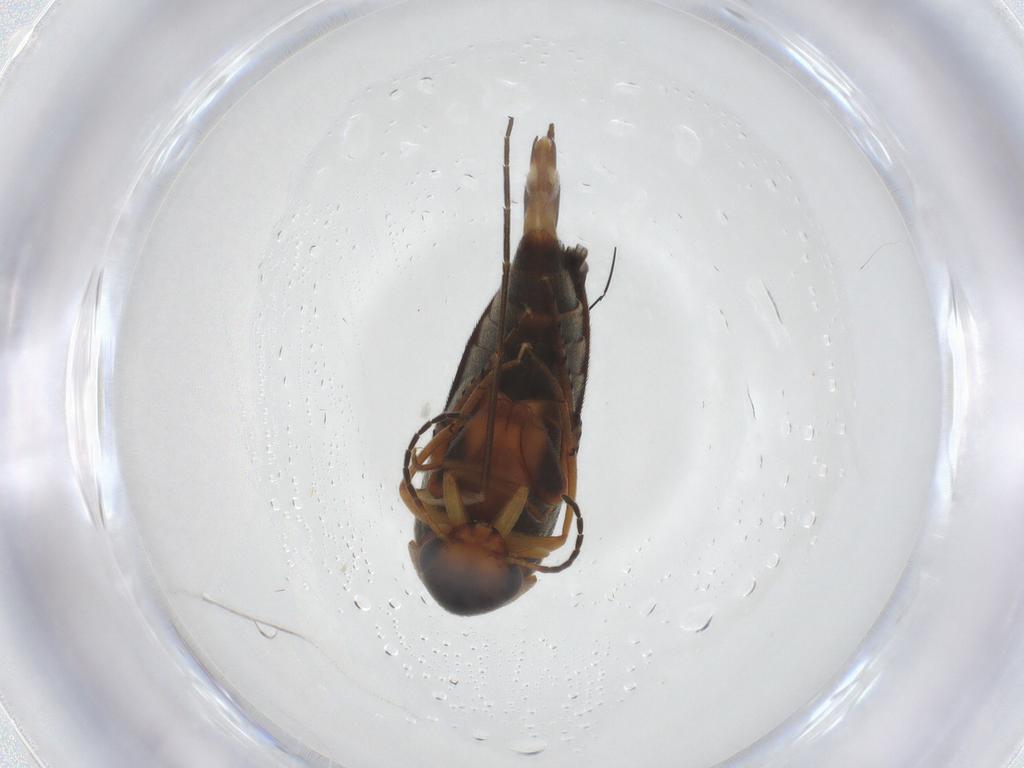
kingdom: Animalia
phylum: Arthropoda
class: Insecta
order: Coleoptera
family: Mordellidae
